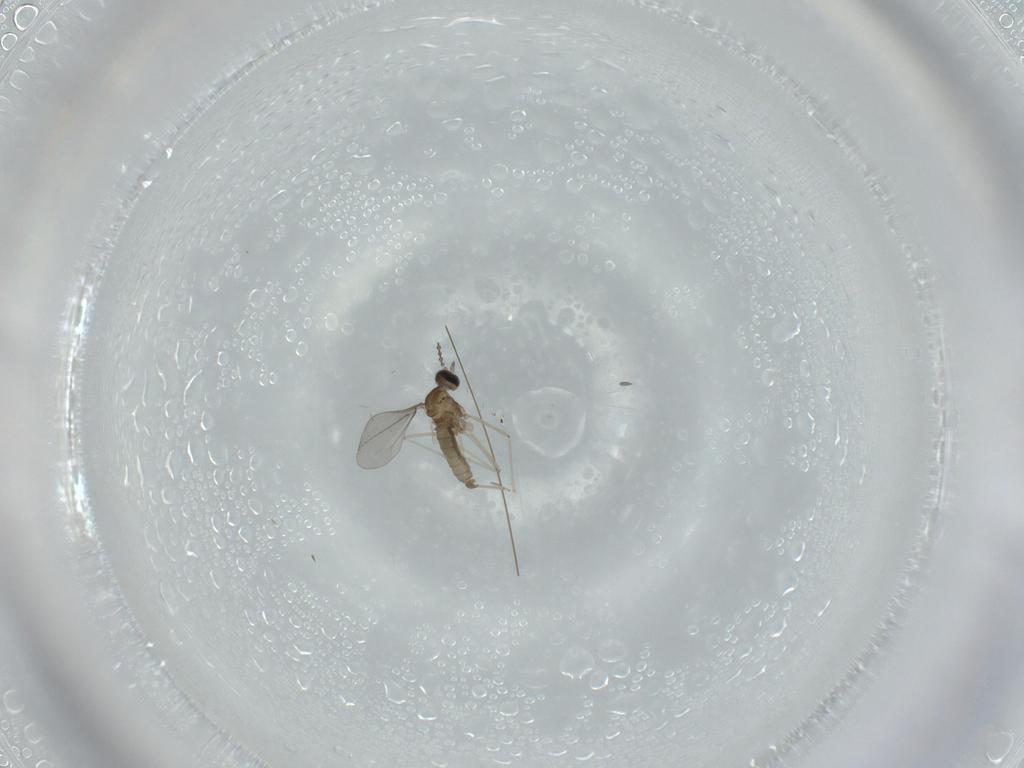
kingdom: Animalia
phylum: Arthropoda
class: Insecta
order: Diptera
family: Cecidomyiidae
